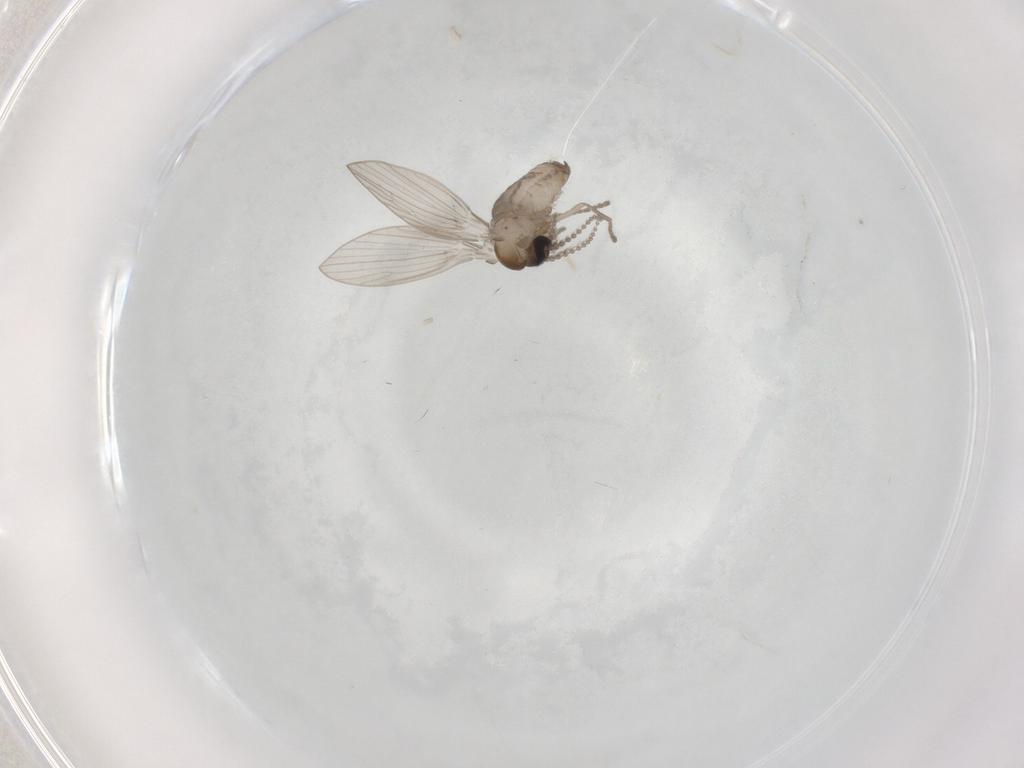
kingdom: Animalia
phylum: Arthropoda
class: Insecta
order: Diptera
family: Psychodidae
